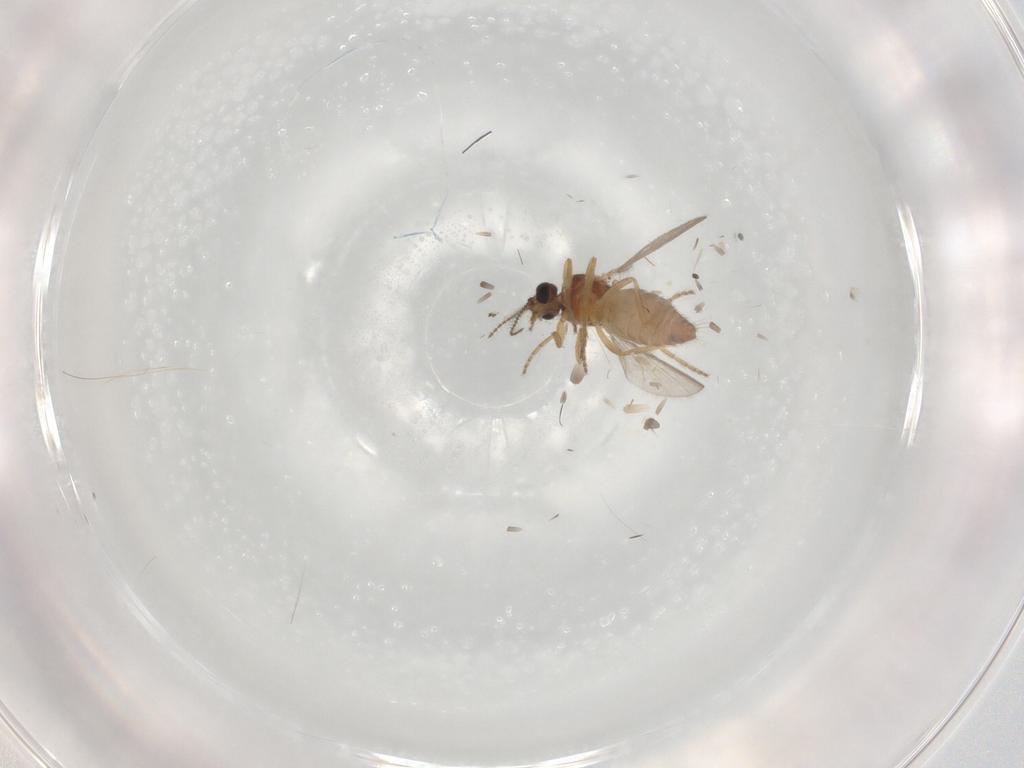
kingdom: Animalia
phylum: Arthropoda
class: Insecta
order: Diptera
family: Ceratopogonidae
